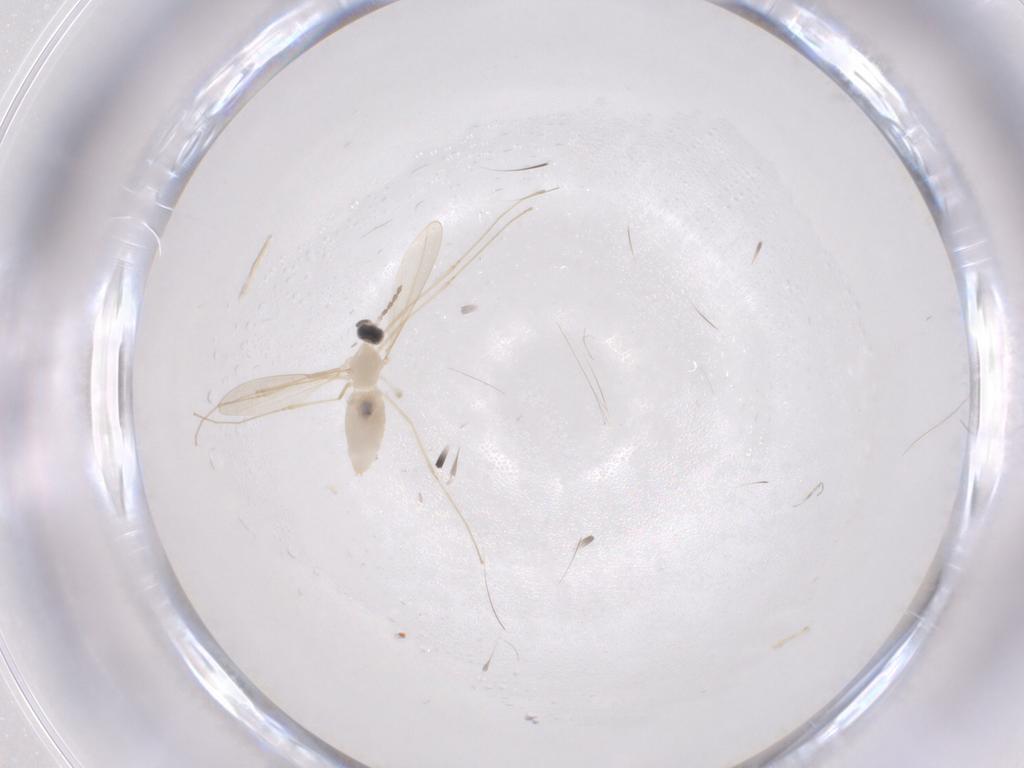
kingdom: Animalia
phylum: Arthropoda
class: Insecta
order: Diptera
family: Cecidomyiidae
